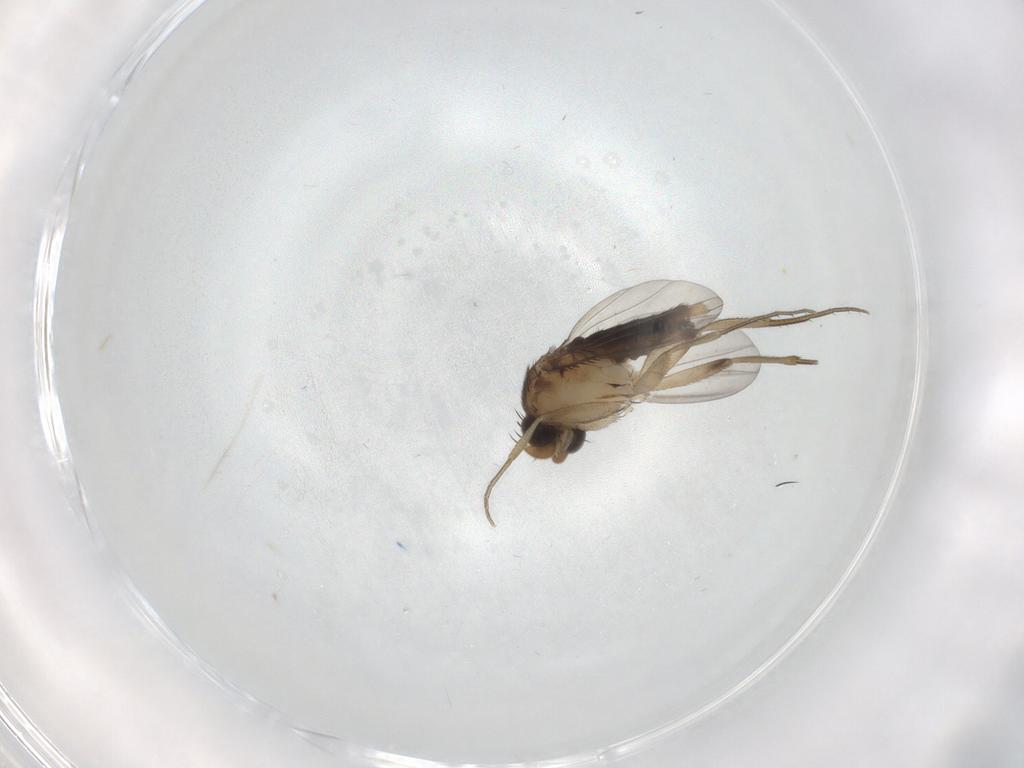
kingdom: Animalia
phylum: Arthropoda
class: Insecta
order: Diptera
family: Phoridae
